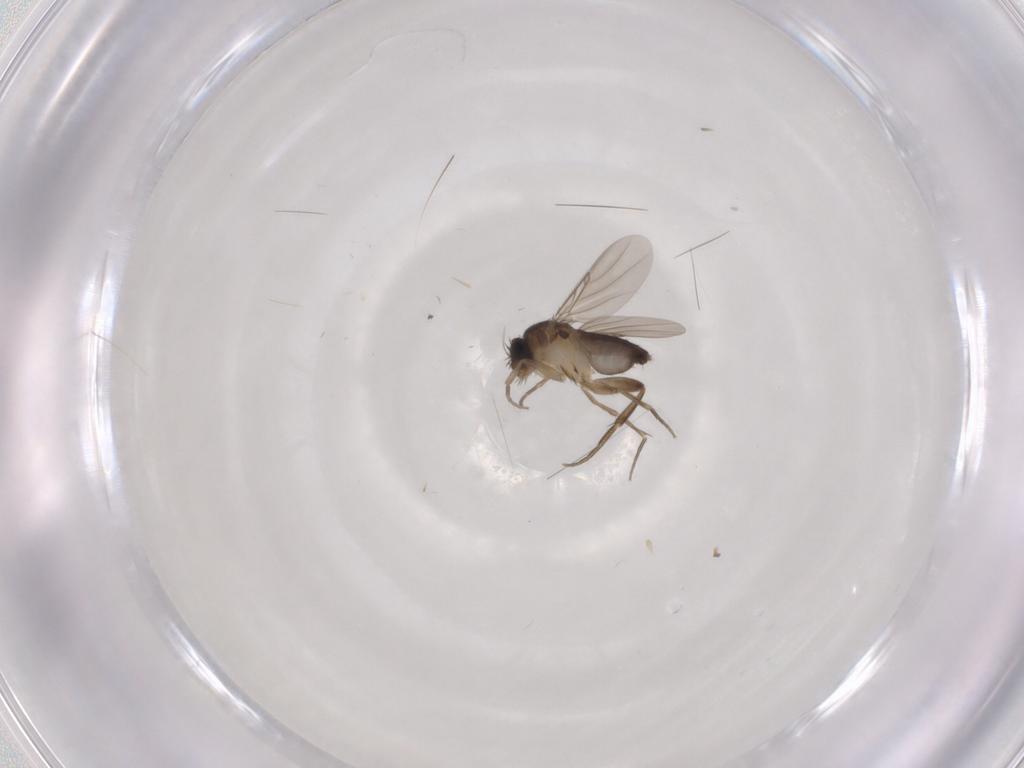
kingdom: Animalia
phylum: Arthropoda
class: Insecta
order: Diptera
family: Phoridae
